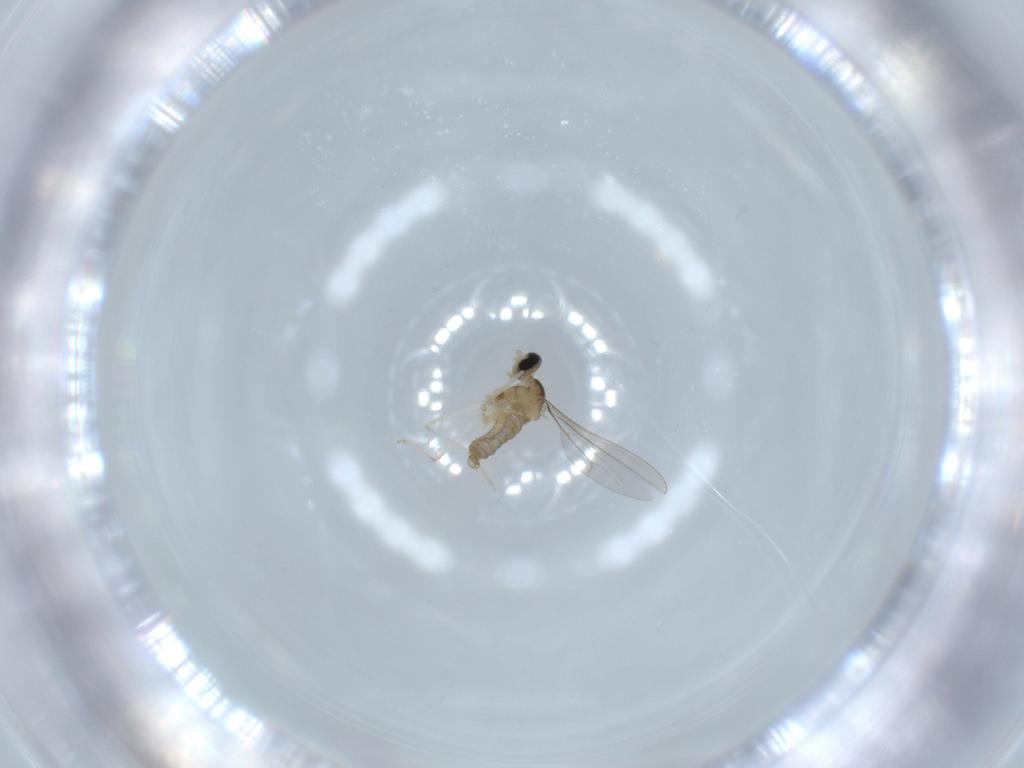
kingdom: Animalia
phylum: Arthropoda
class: Insecta
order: Diptera
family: Cecidomyiidae
